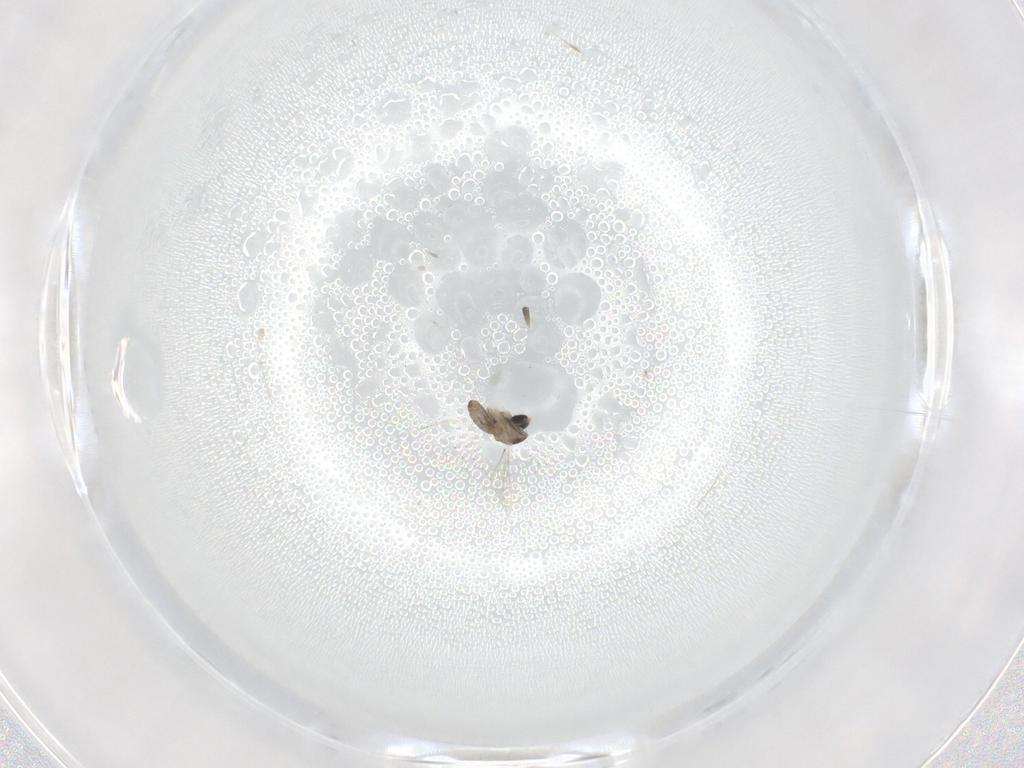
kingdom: Animalia
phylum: Arthropoda
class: Insecta
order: Diptera
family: Cecidomyiidae
